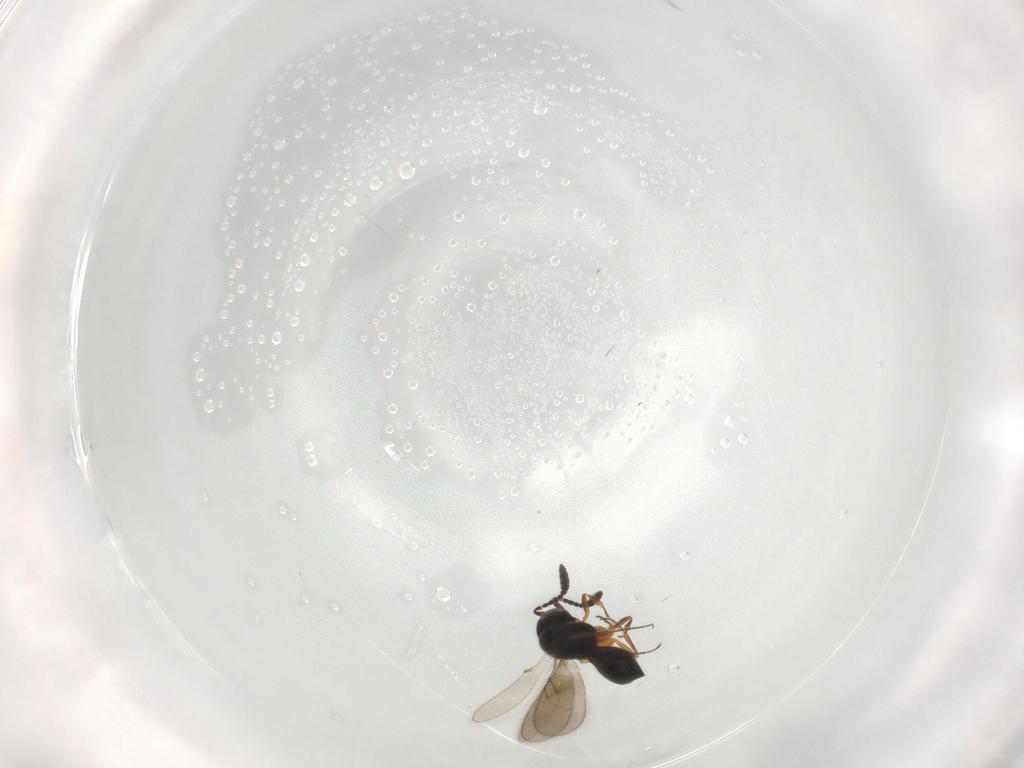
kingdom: Animalia
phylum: Arthropoda
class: Insecta
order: Hymenoptera
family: Scelionidae
